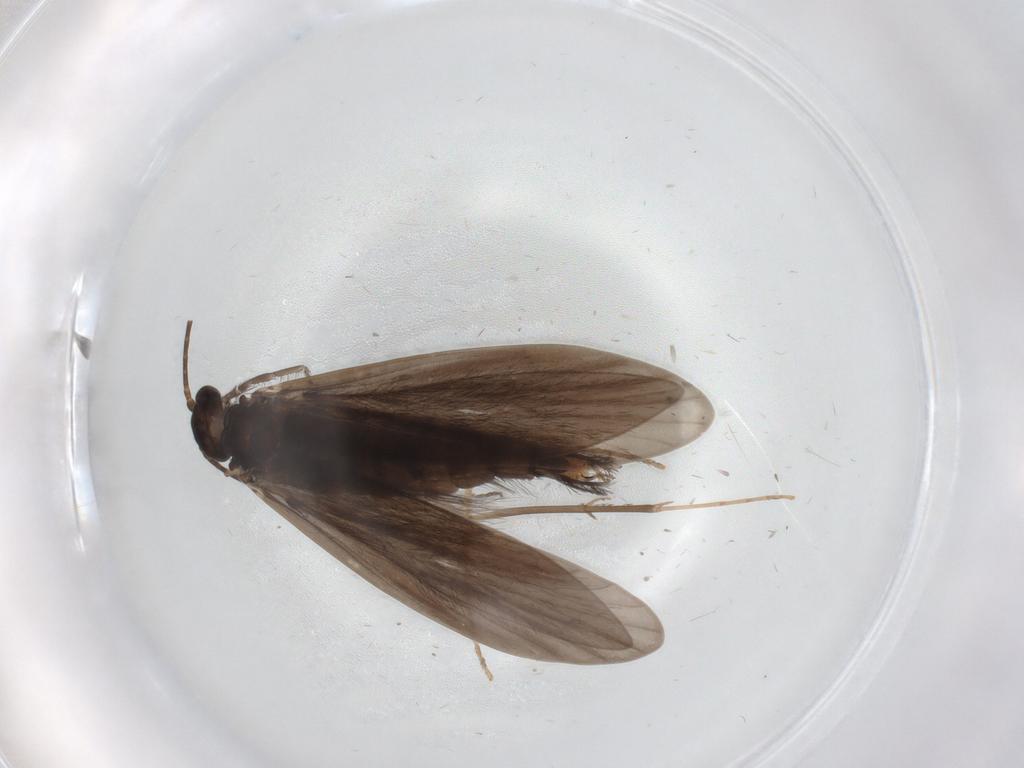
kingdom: Animalia
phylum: Arthropoda
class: Insecta
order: Trichoptera
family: Xiphocentronidae
